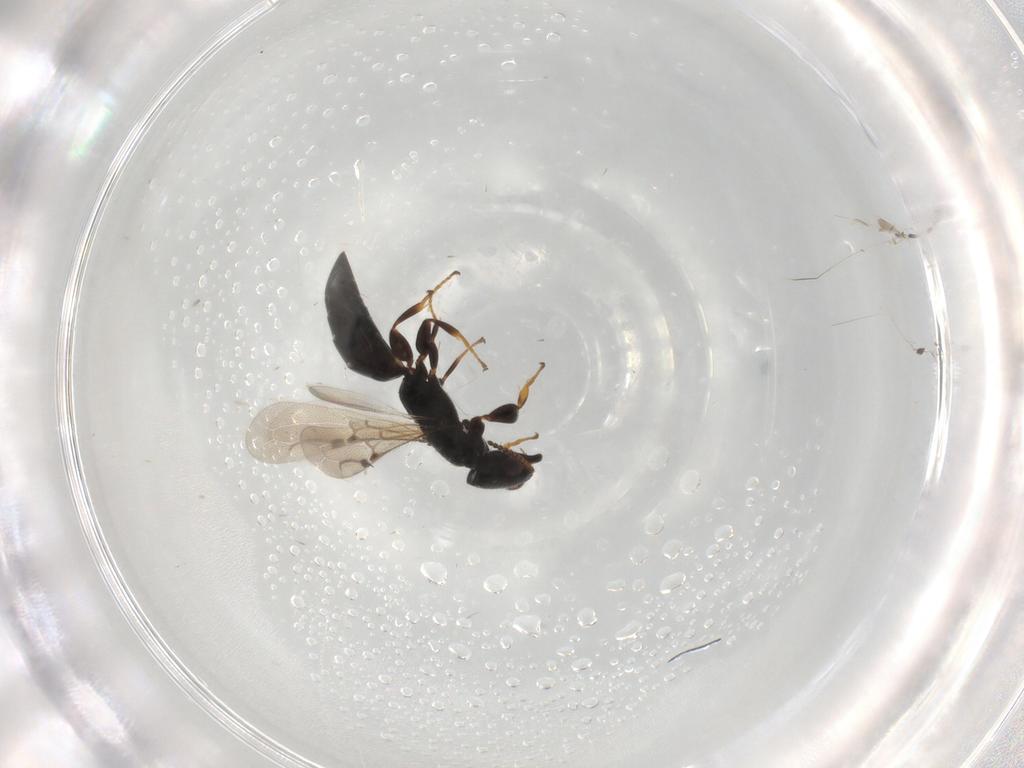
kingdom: Animalia
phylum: Arthropoda
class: Insecta
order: Hymenoptera
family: Bethylidae
